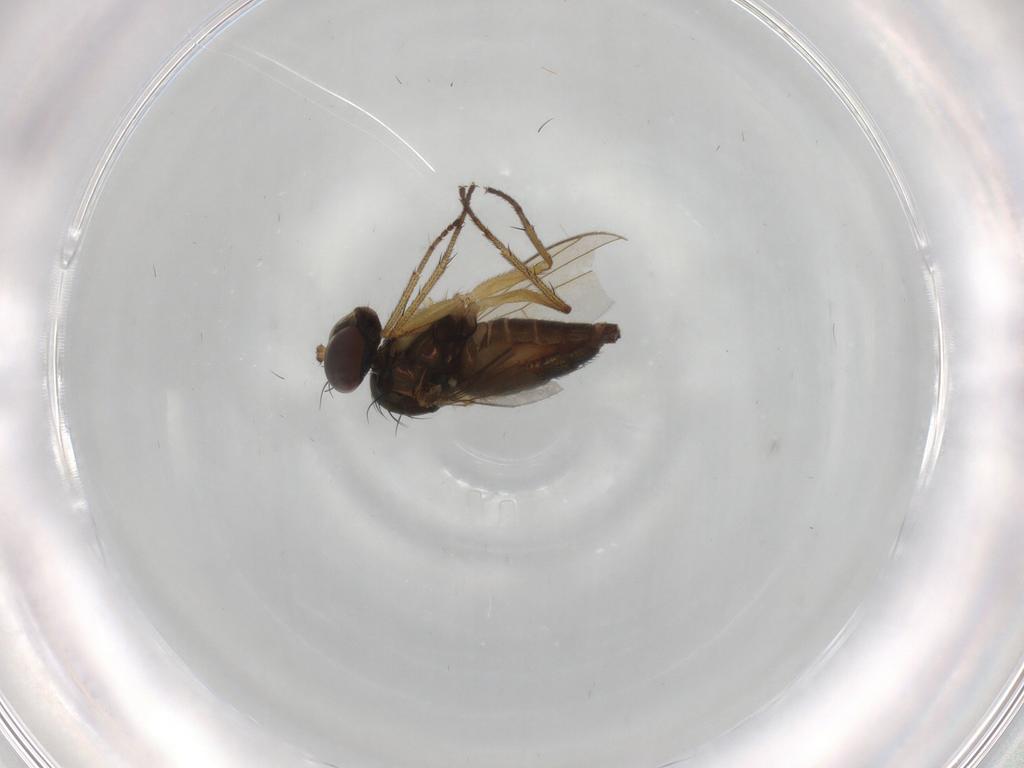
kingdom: Animalia
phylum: Arthropoda
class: Insecta
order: Diptera
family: Dolichopodidae
